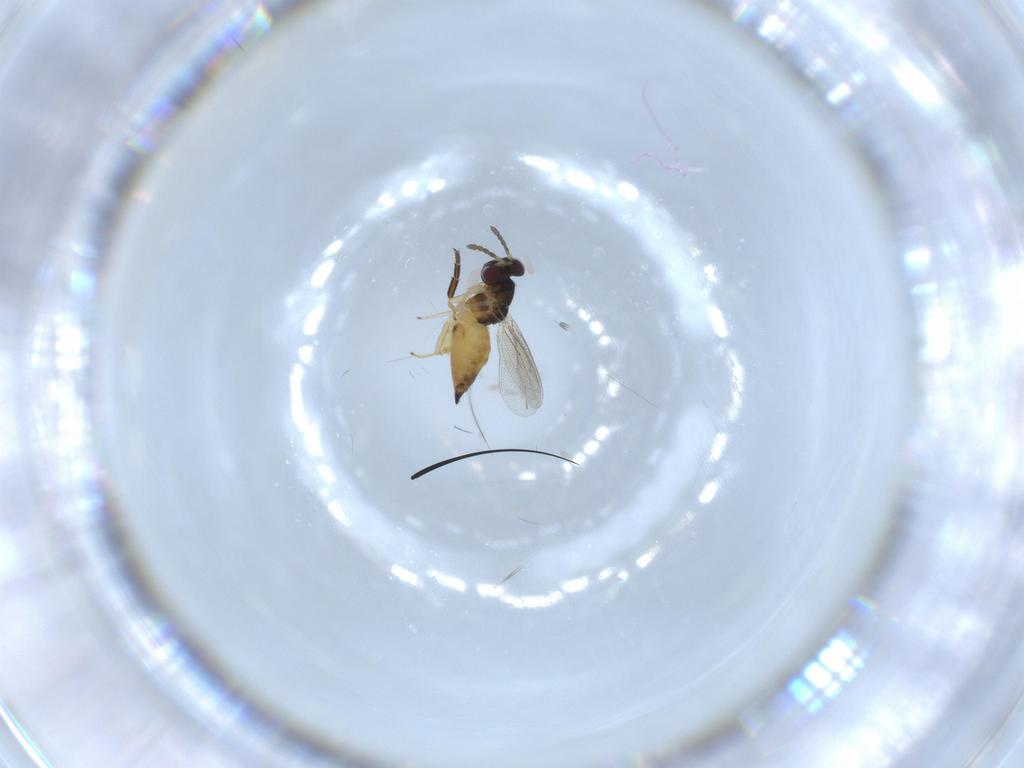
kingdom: Animalia
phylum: Arthropoda
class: Insecta
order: Hymenoptera
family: Eulophidae
